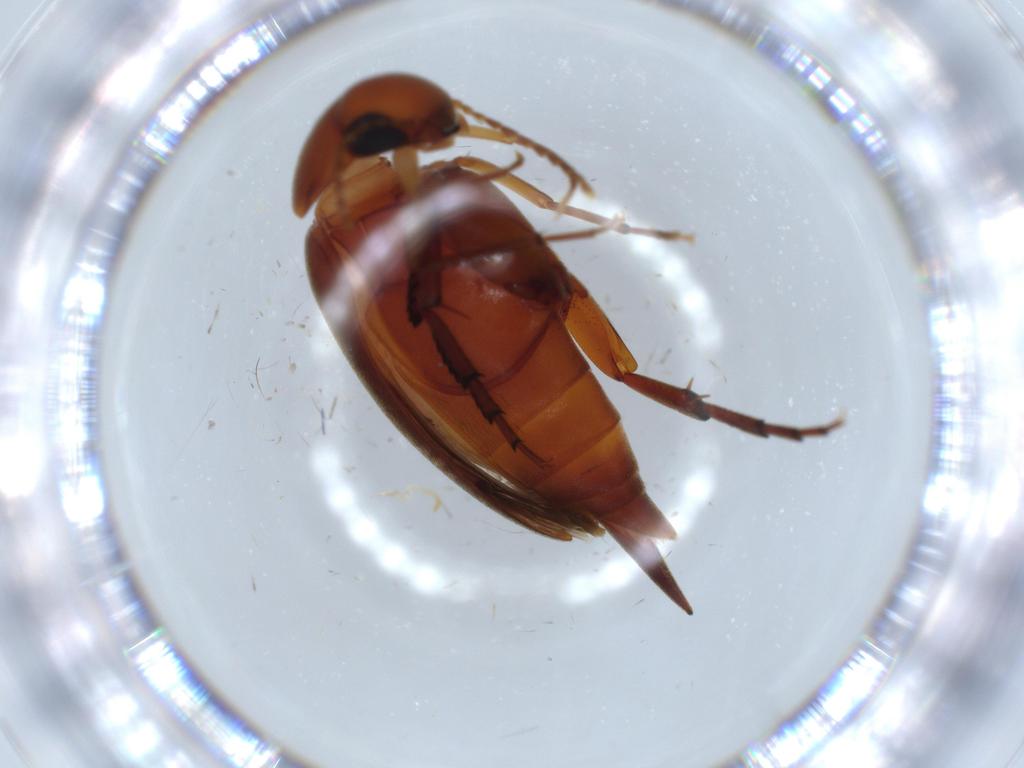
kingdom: Animalia
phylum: Arthropoda
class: Insecta
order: Coleoptera
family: Mordellidae
